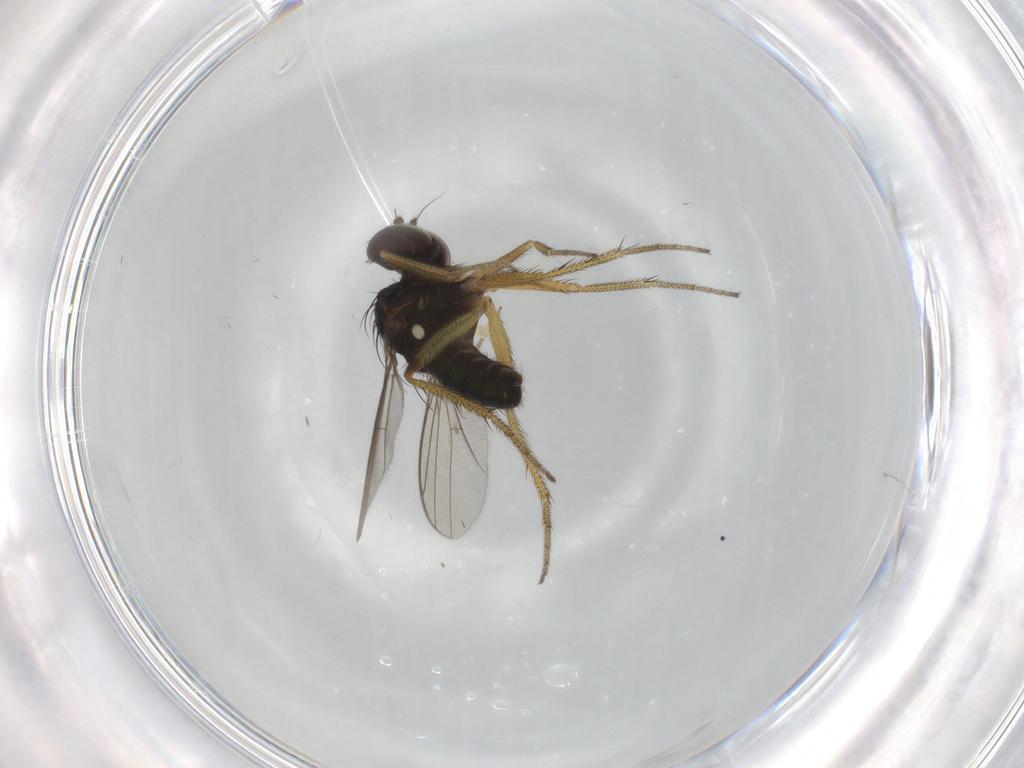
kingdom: Animalia
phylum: Arthropoda
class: Insecta
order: Diptera
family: Chironomidae
